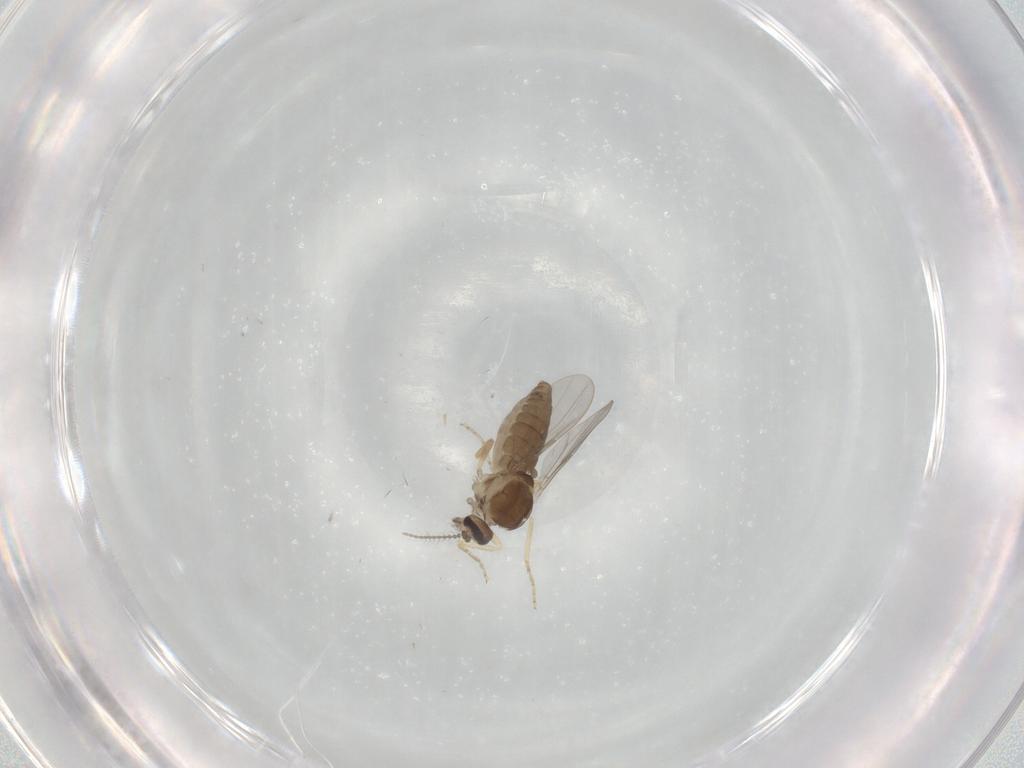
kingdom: Animalia
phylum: Arthropoda
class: Insecta
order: Diptera
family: Ceratopogonidae
